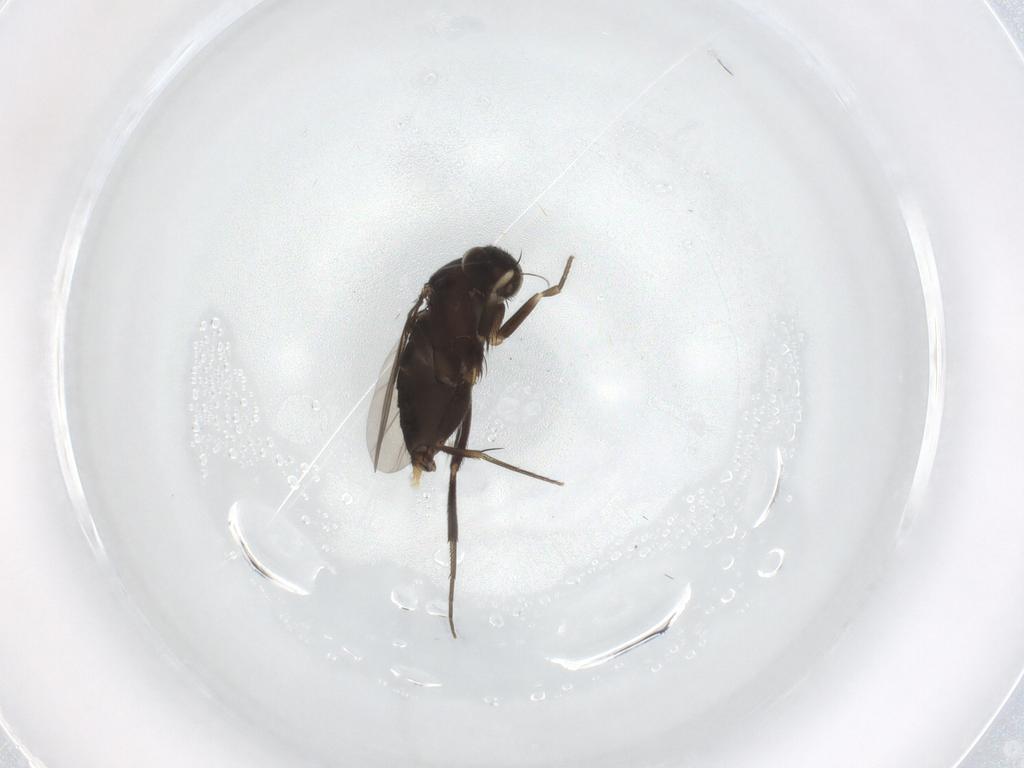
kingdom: Animalia
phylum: Arthropoda
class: Insecta
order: Diptera
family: Phoridae
